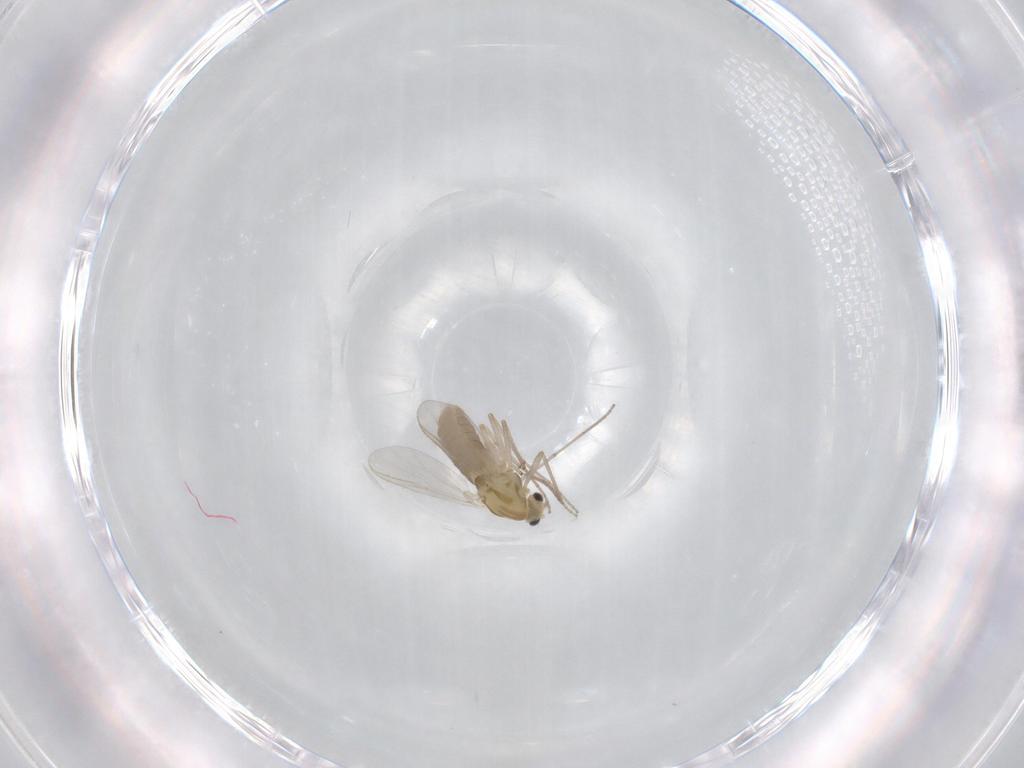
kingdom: Animalia
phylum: Arthropoda
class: Insecta
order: Diptera
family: Chironomidae
